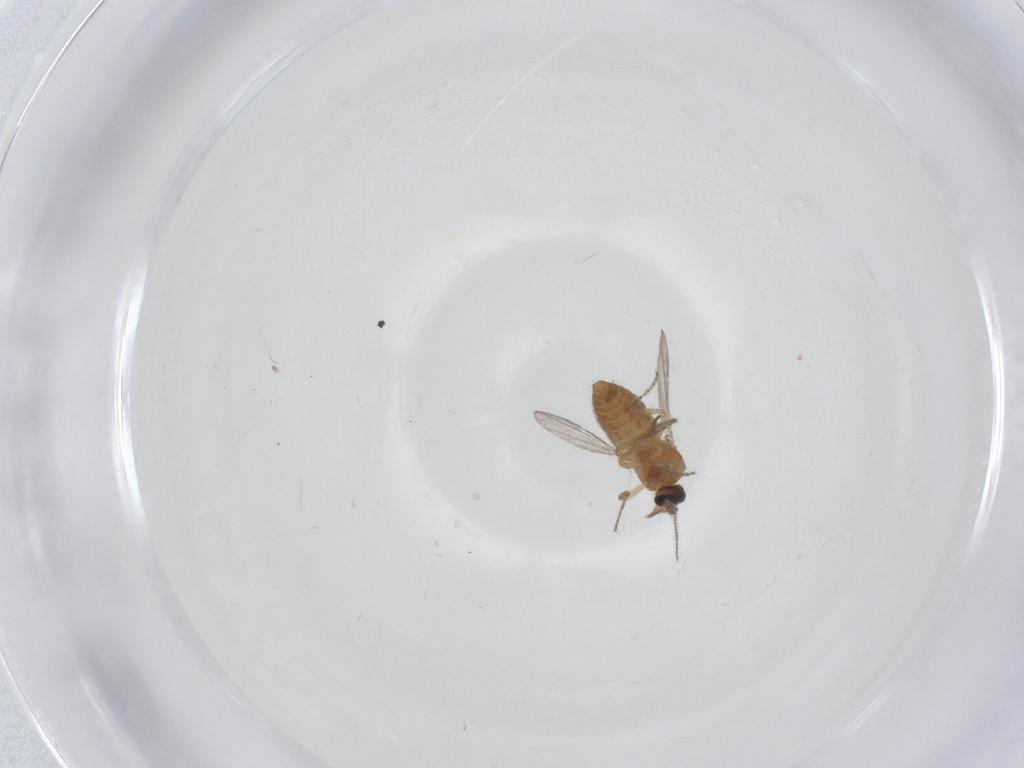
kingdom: Animalia
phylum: Arthropoda
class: Insecta
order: Diptera
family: Ceratopogonidae
